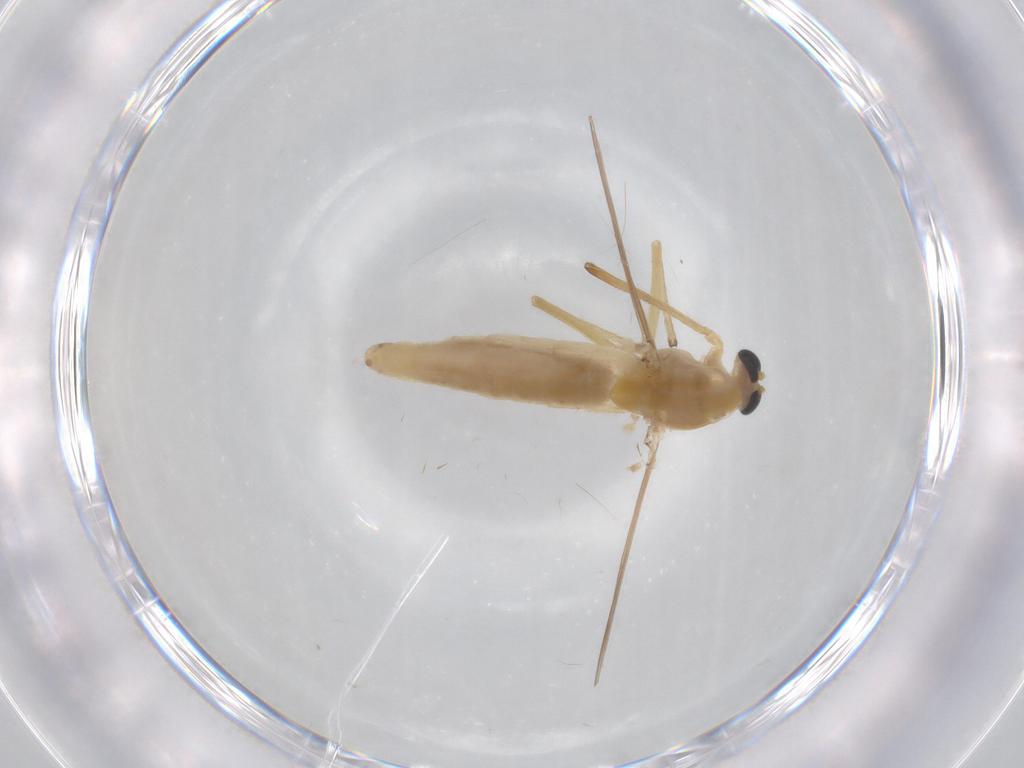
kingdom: Animalia
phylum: Arthropoda
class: Insecta
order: Diptera
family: Chironomidae
